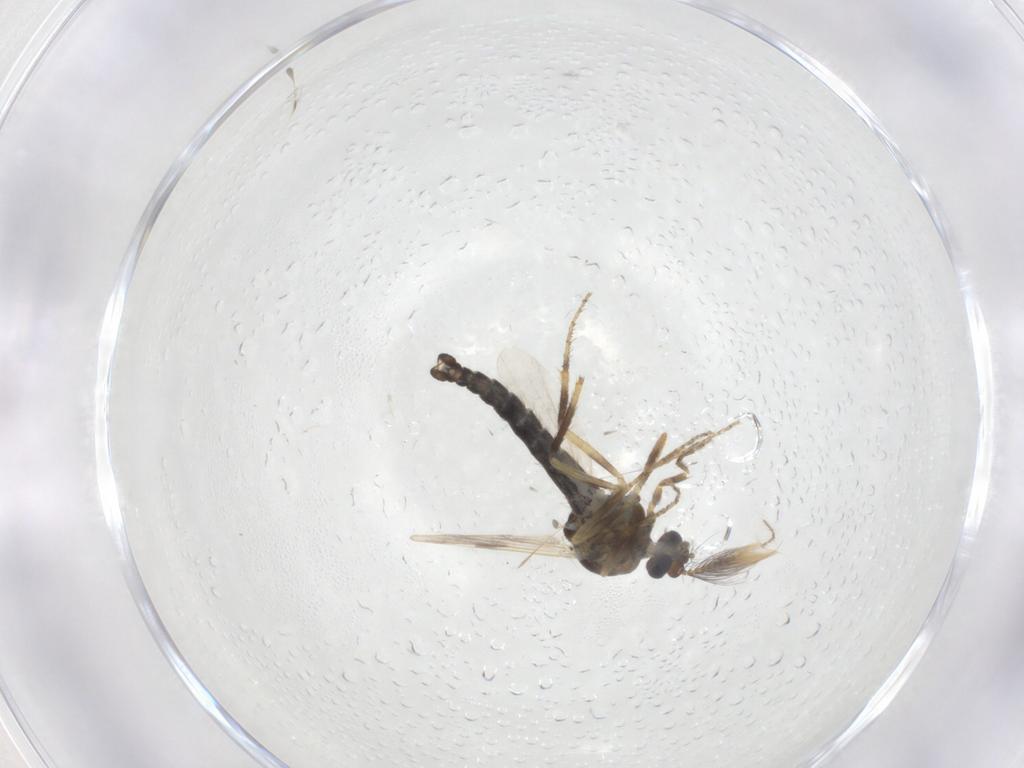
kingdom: Animalia
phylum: Arthropoda
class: Insecta
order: Diptera
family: Ceratopogonidae
